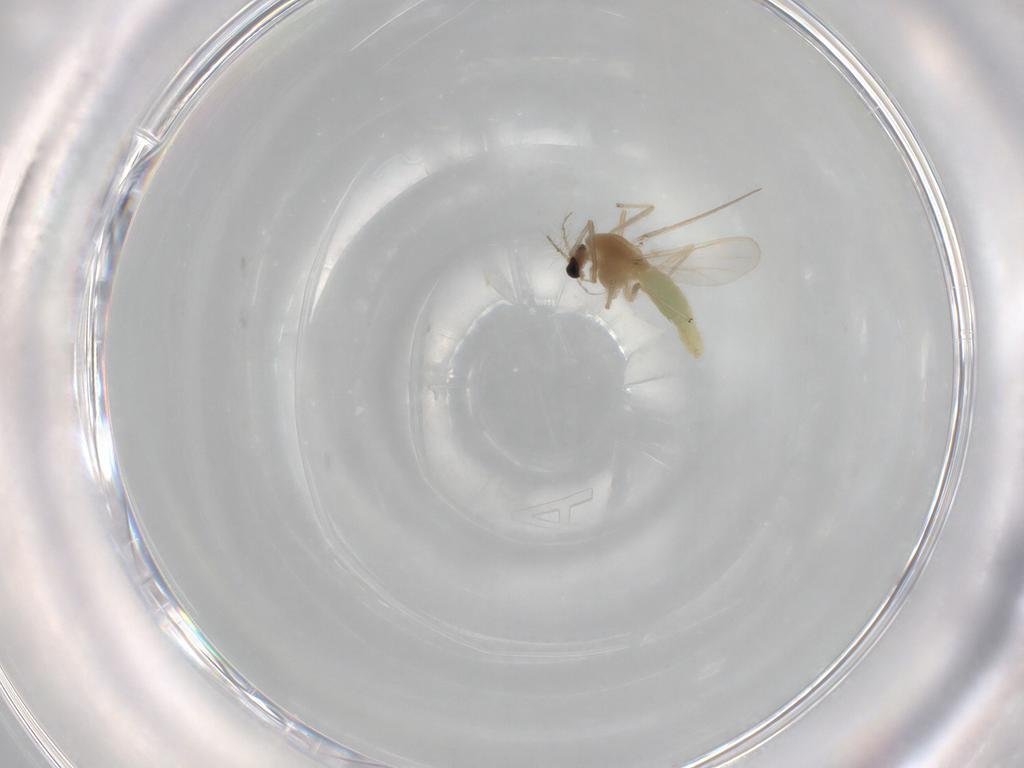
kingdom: Animalia
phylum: Arthropoda
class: Insecta
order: Diptera
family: Chironomidae
